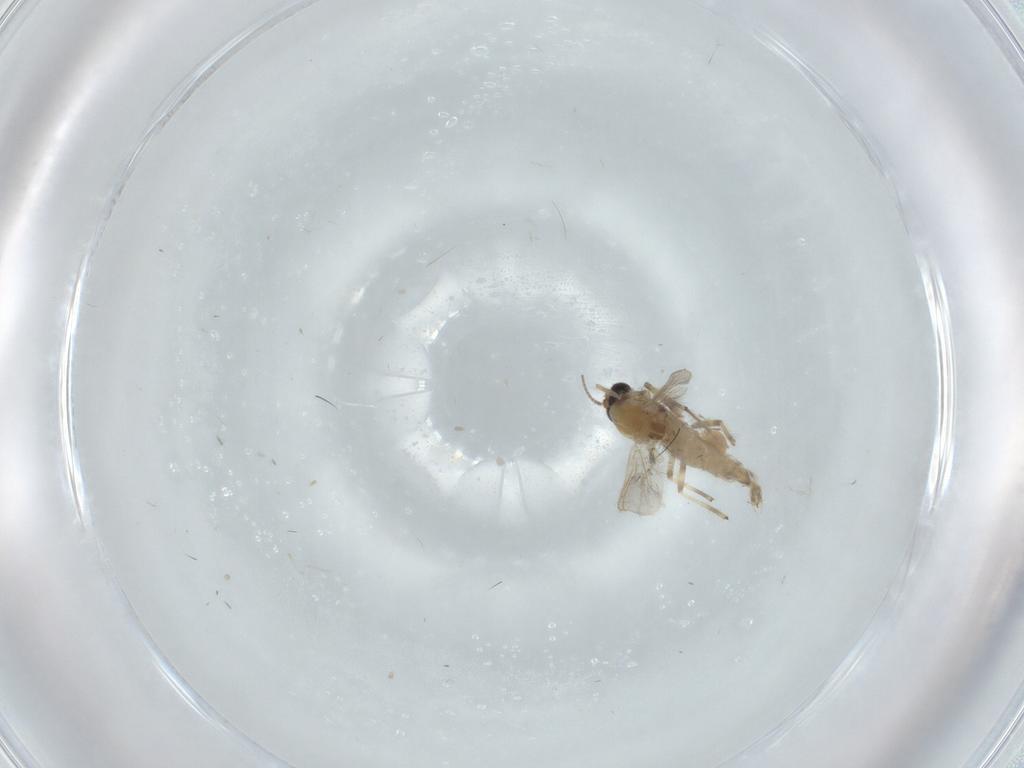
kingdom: Animalia
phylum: Arthropoda
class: Insecta
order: Diptera
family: Chironomidae
